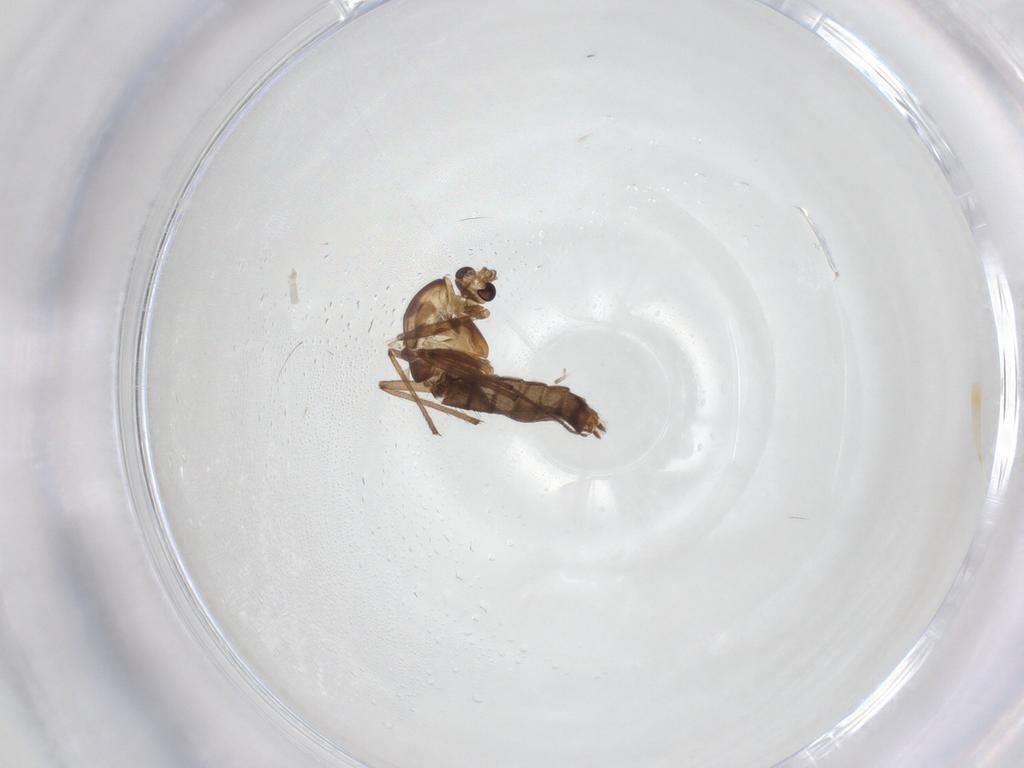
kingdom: Animalia
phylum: Arthropoda
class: Insecta
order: Diptera
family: Chironomidae
